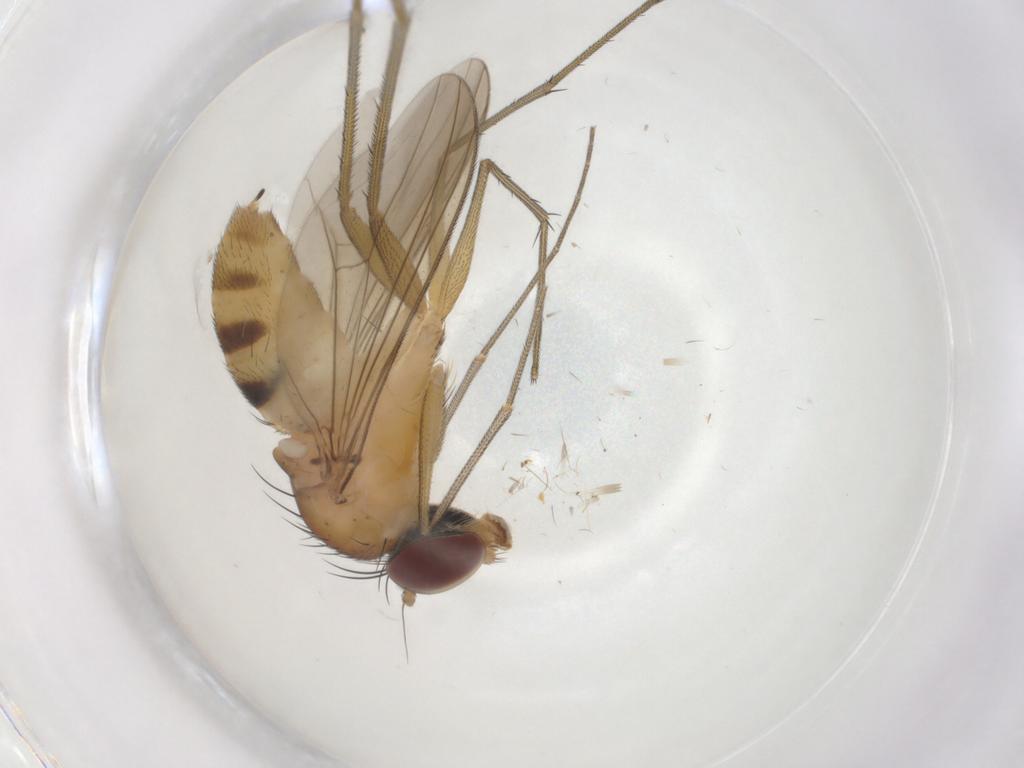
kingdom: Animalia
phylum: Arthropoda
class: Insecta
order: Diptera
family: Dolichopodidae
